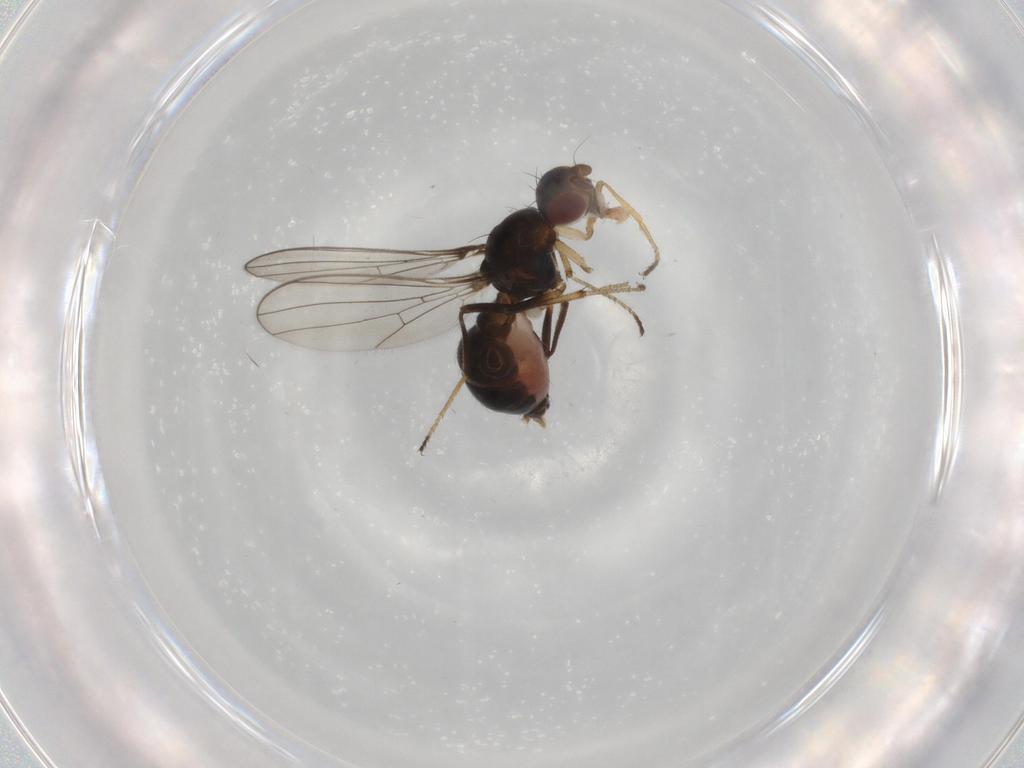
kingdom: Animalia
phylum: Arthropoda
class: Insecta
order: Diptera
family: Sepsidae
